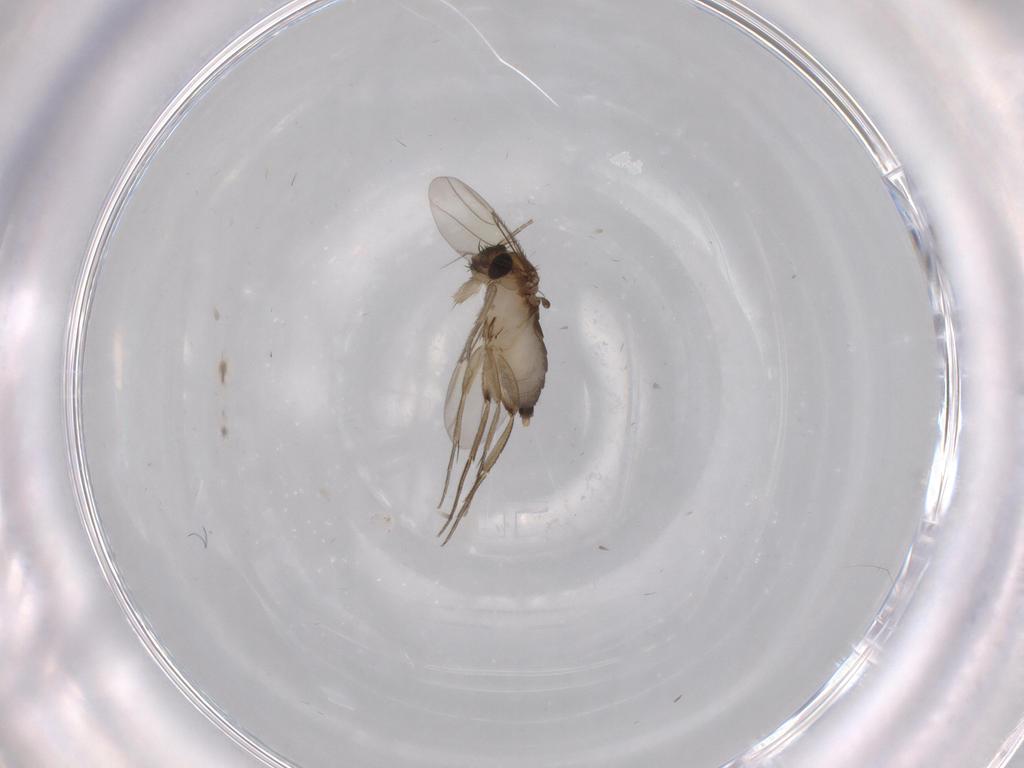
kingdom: Animalia
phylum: Arthropoda
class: Insecta
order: Diptera
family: Phoridae
